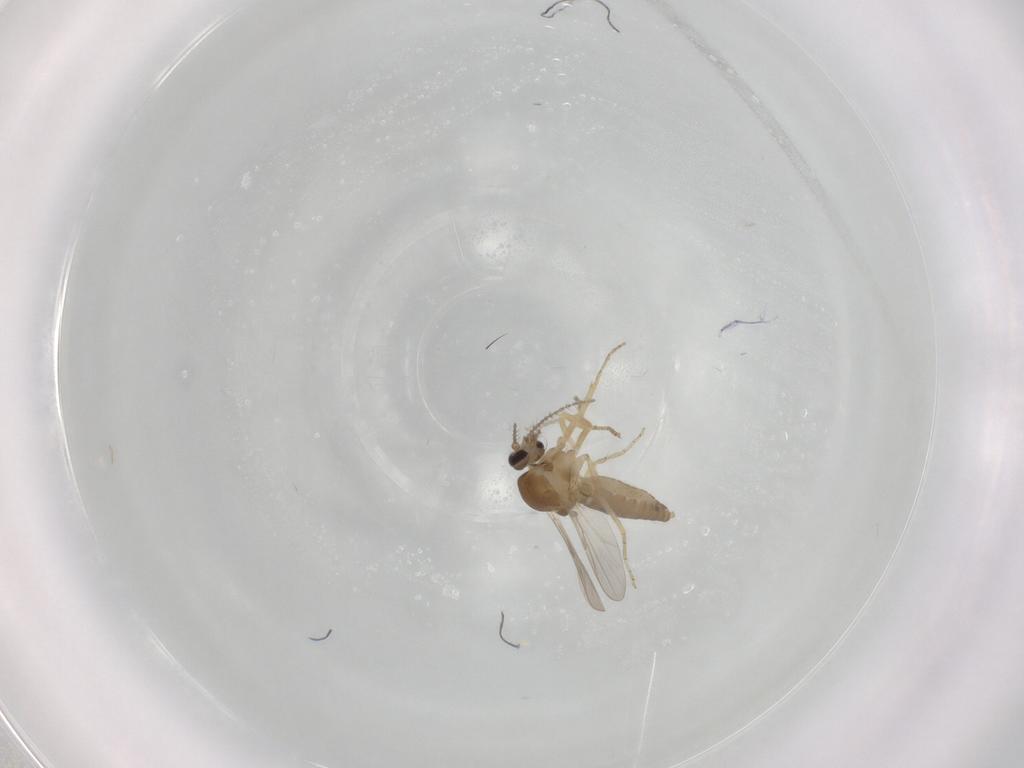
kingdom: Animalia
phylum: Arthropoda
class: Insecta
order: Diptera
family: Ceratopogonidae
